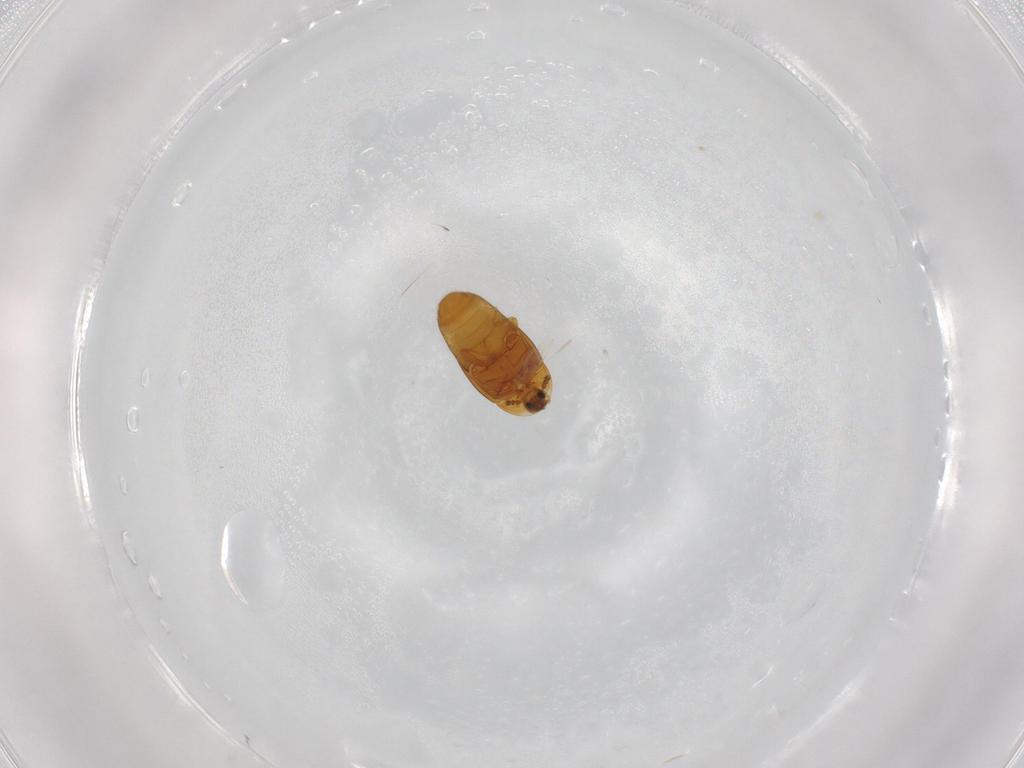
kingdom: Animalia
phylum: Arthropoda
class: Insecta
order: Coleoptera
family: Corylophidae
